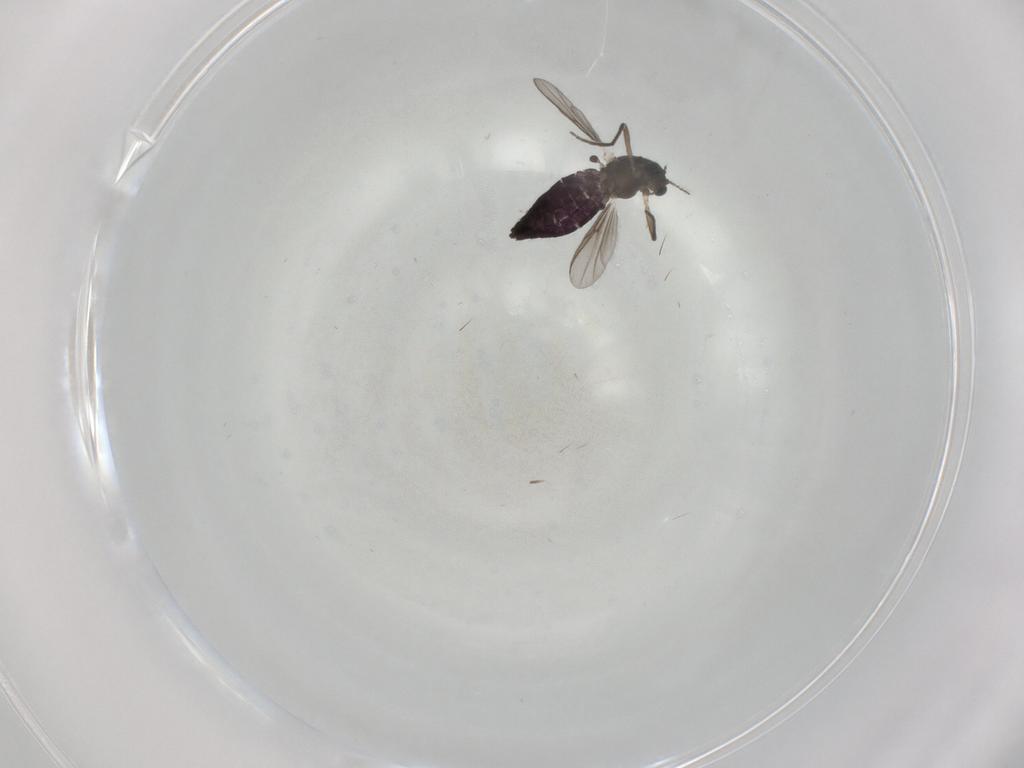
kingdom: Animalia
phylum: Arthropoda
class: Insecta
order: Diptera
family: Chironomidae
